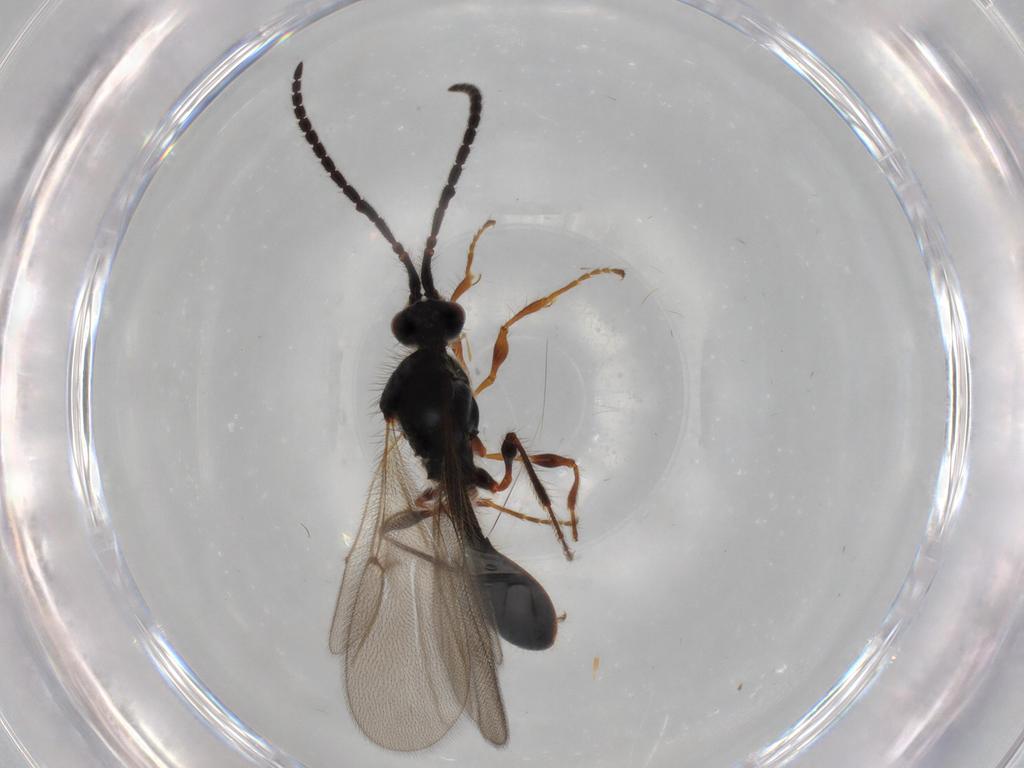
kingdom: Animalia
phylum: Arthropoda
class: Insecta
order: Hymenoptera
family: Diapriidae
